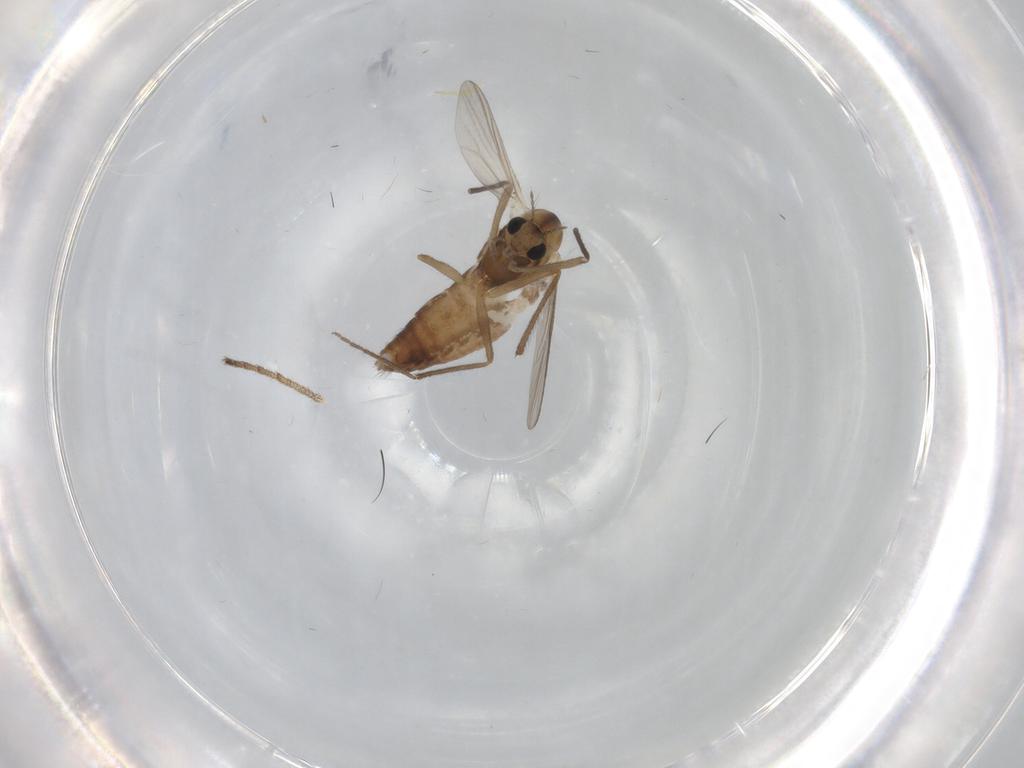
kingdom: Animalia
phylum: Arthropoda
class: Insecta
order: Diptera
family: Chironomidae
